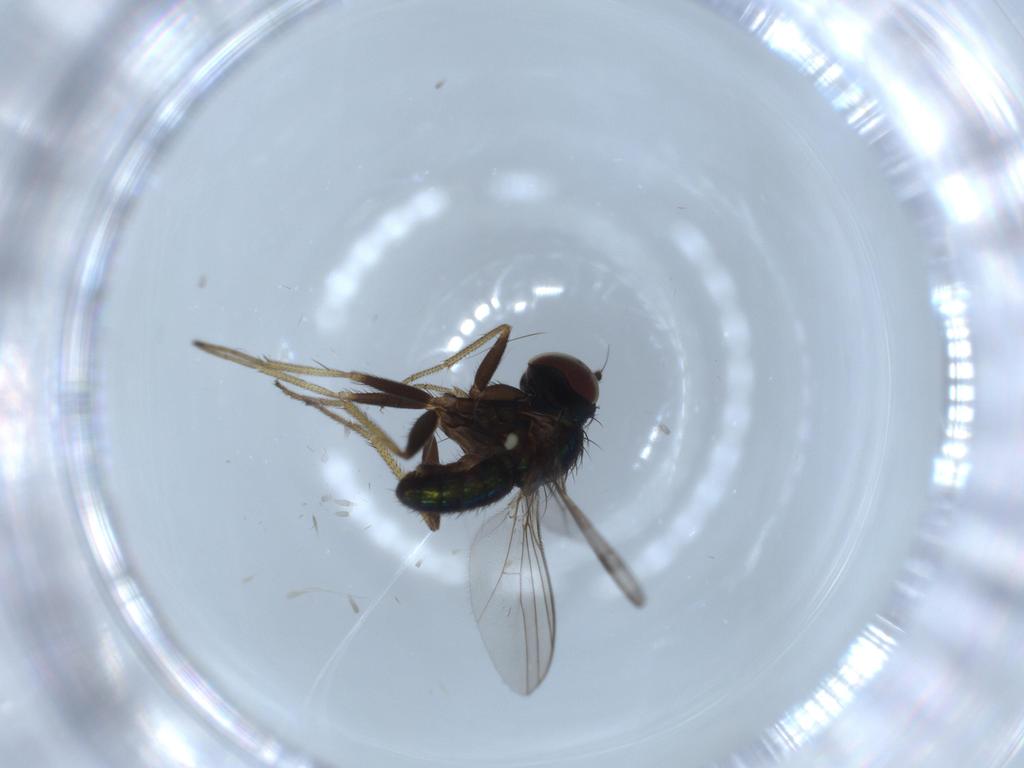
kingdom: Animalia
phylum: Arthropoda
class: Insecta
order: Diptera
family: Dolichopodidae
